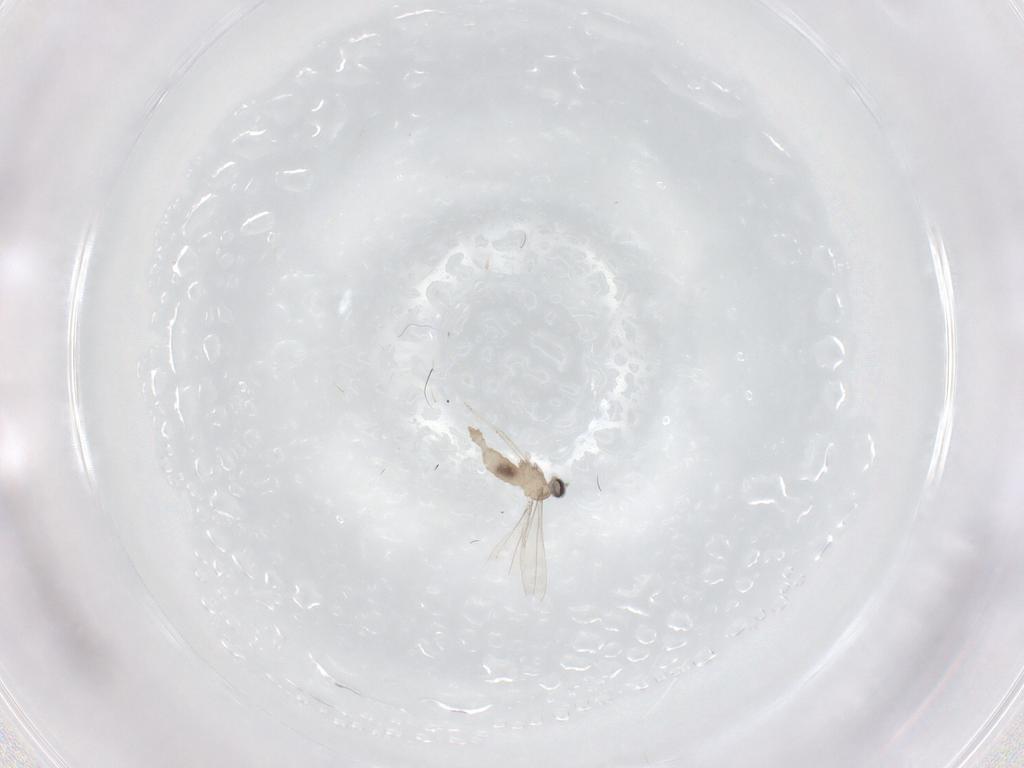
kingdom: Animalia
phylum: Arthropoda
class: Insecta
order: Diptera
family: Cecidomyiidae
